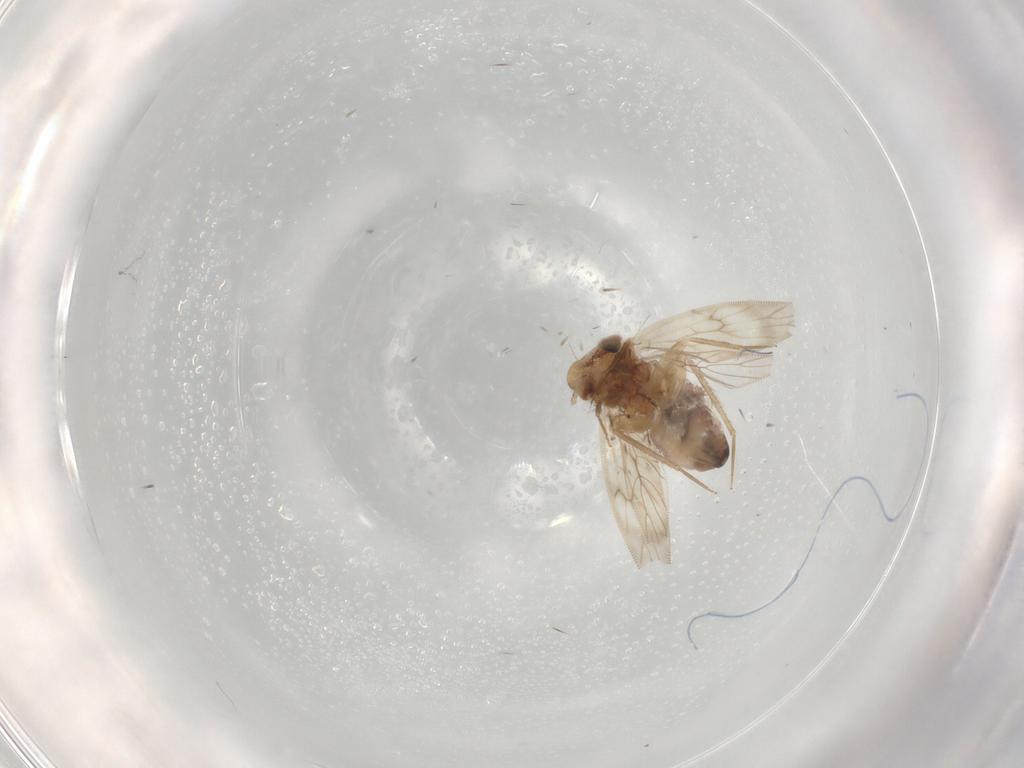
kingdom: Animalia
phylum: Arthropoda
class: Insecta
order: Psocodea
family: Lepidopsocidae
